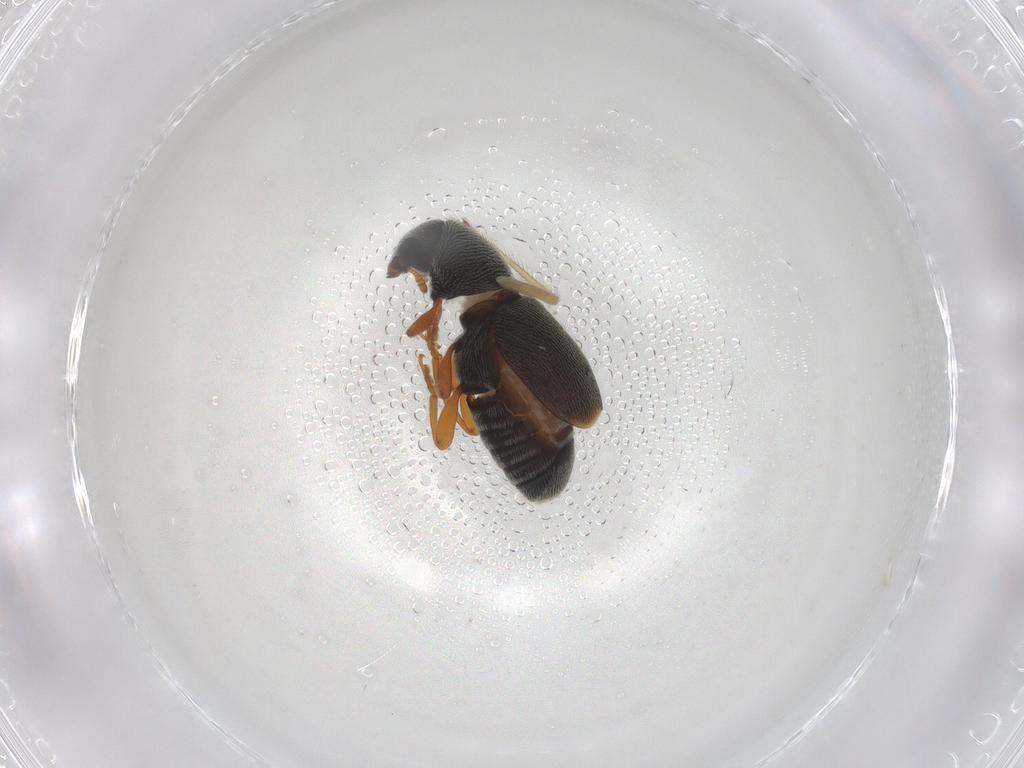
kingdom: Animalia
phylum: Arthropoda
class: Insecta
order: Coleoptera
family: Anthribidae
